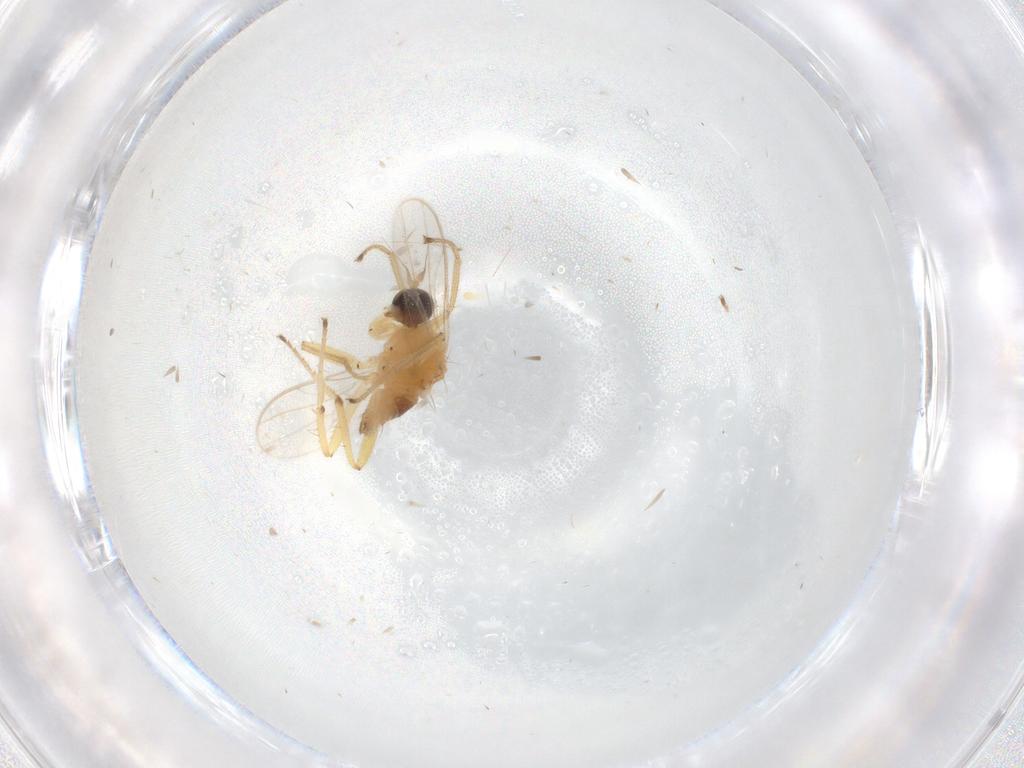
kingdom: Animalia
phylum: Arthropoda
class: Insecta
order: Diptera
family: Hybotidae
